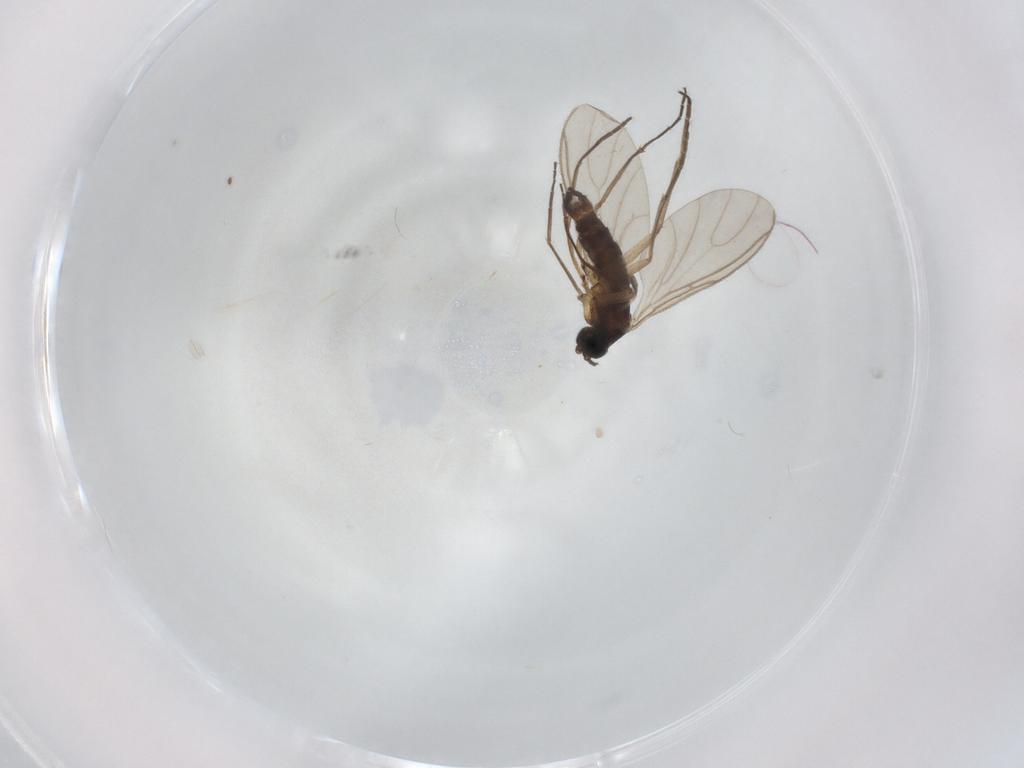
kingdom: Animalia
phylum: Arthropoda
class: Insecta
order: Diptera
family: Sciaridae
